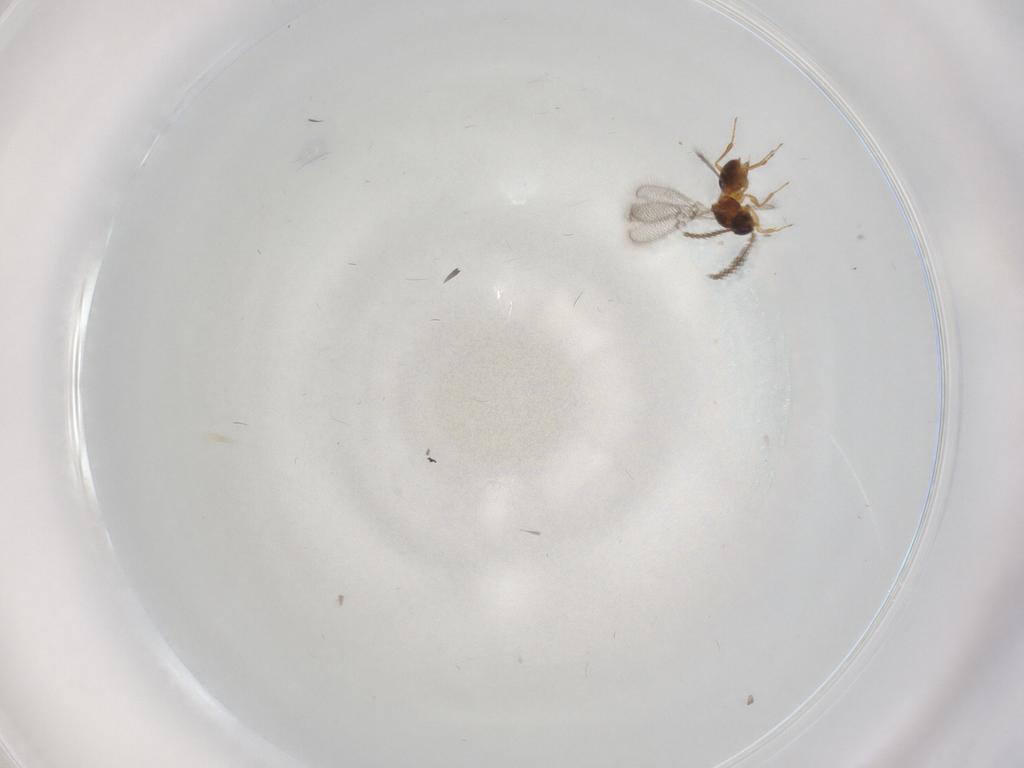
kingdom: Animalia
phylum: Arthropoda
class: Insecta
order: Hymenoptera
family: Figitidae
